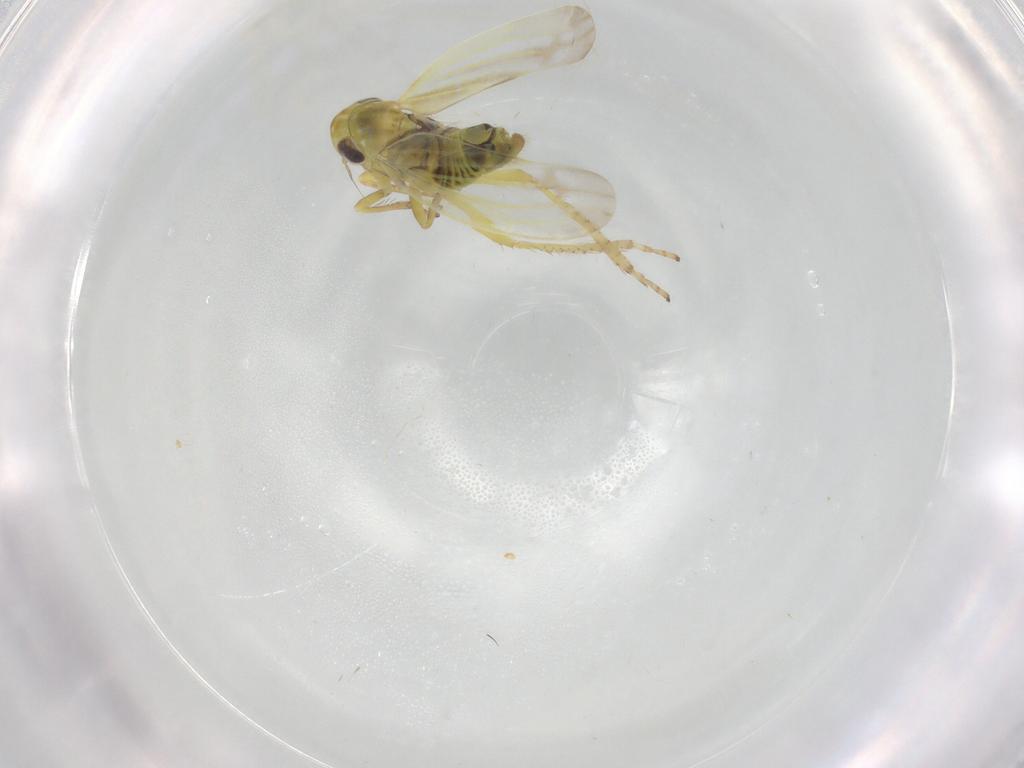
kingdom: Animalia
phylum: Arthropoda
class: Insecta
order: Hemiptera
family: Cicadellidae
